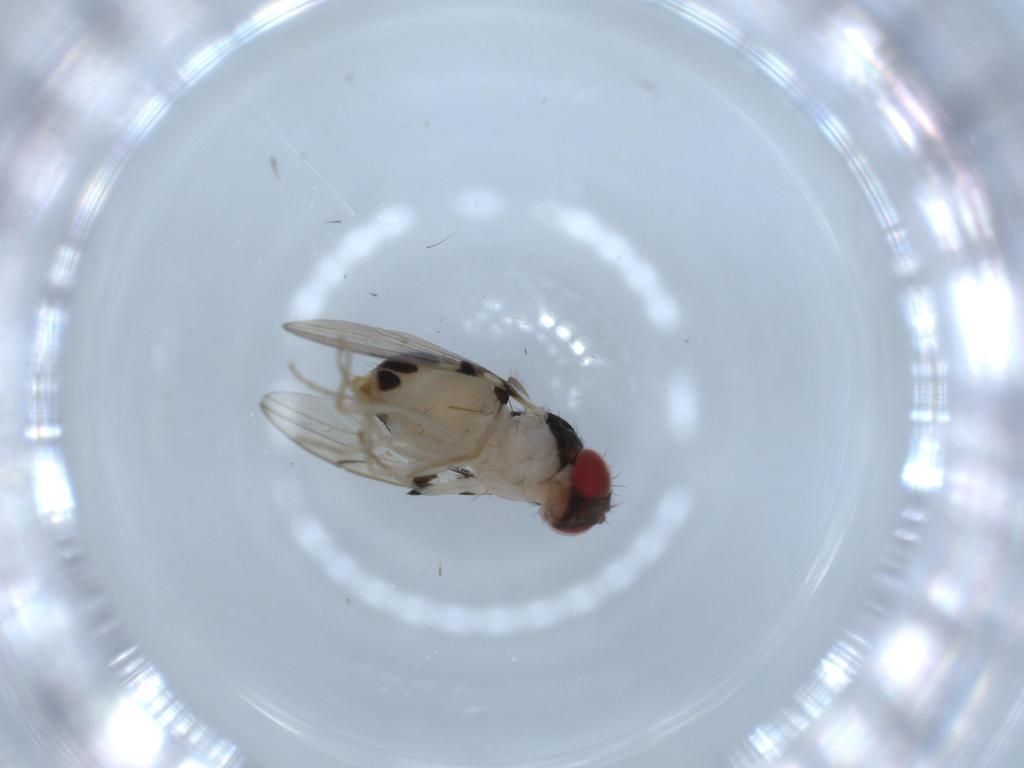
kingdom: Animalia
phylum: Arthropoda
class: Insecta
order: Diptera
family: Drosophilidae
